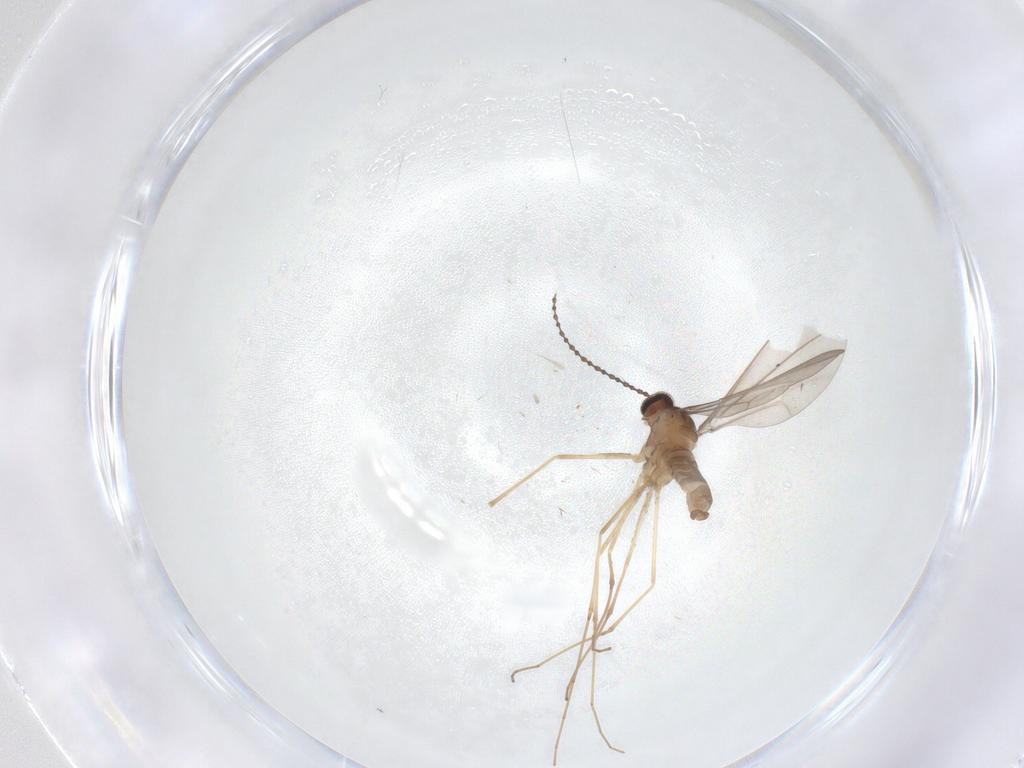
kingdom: Animalia
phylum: Arthropoda
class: Insecta
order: Diptera
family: Cecidomyiidae
